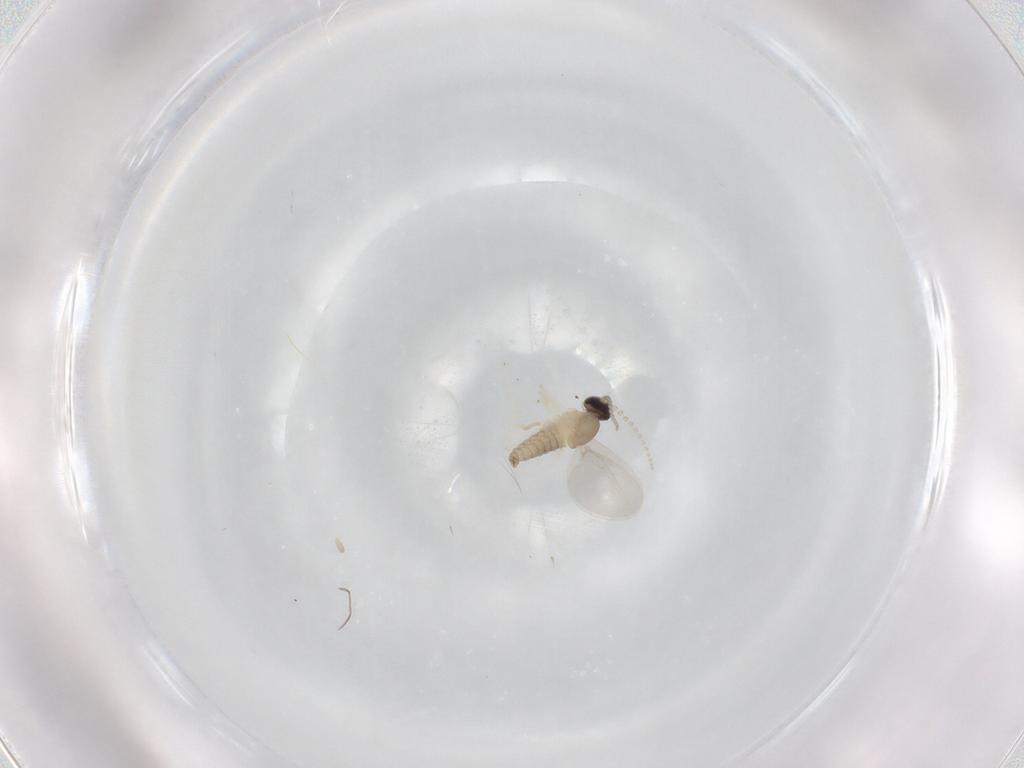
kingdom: Animalia
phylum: Arthropoda
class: Insecta
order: Diptera
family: Cecidomyiidae
